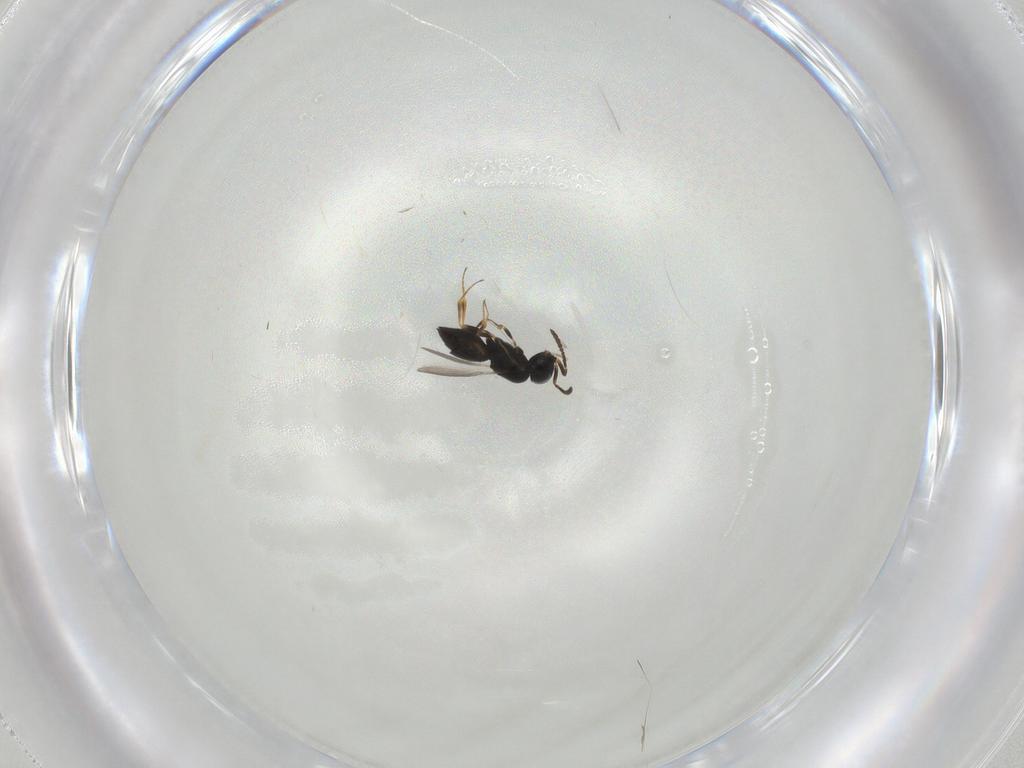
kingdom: Animalia
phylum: Arthropoda
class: Insecta
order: Hymenoptera
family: Scelionidae
